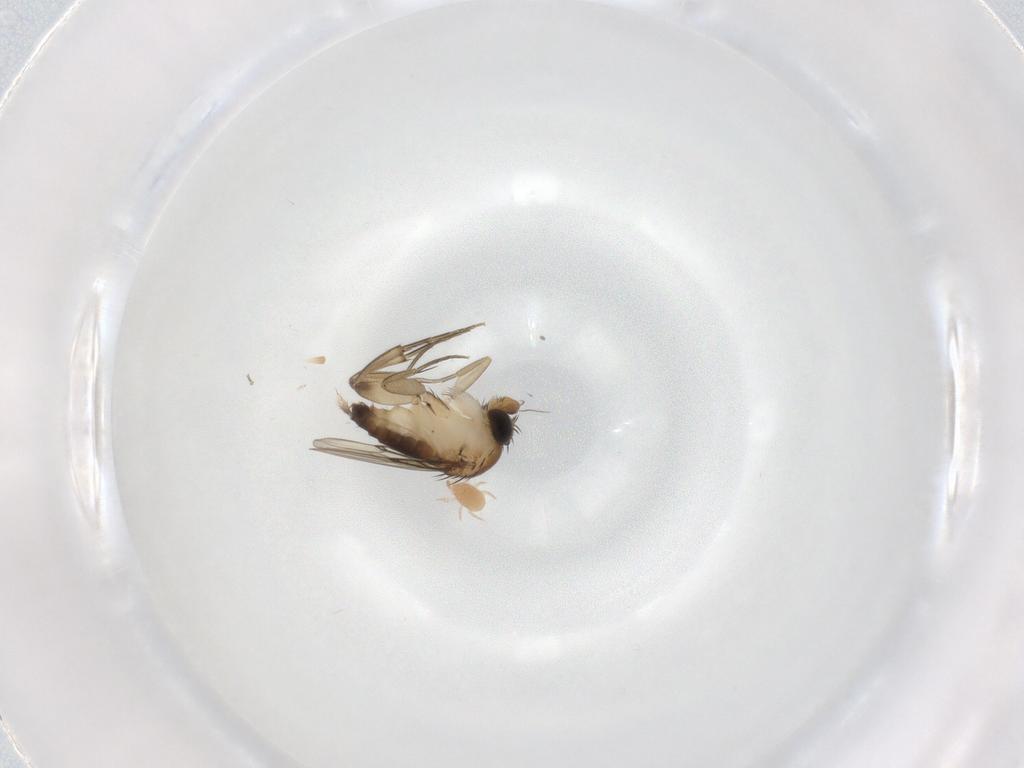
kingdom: Animalia
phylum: Arthropoda
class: Insecta
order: Diptera
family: Phoridae
